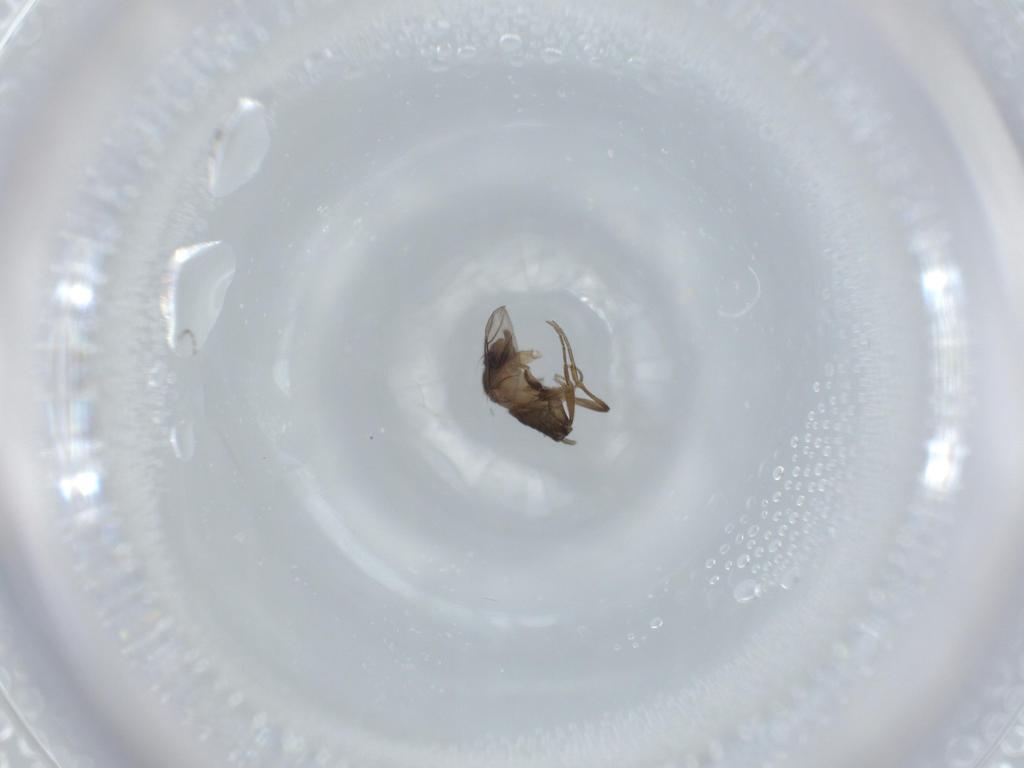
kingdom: Animalia
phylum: Arthropoda
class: Insecta
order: Diptera
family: Phoridae
